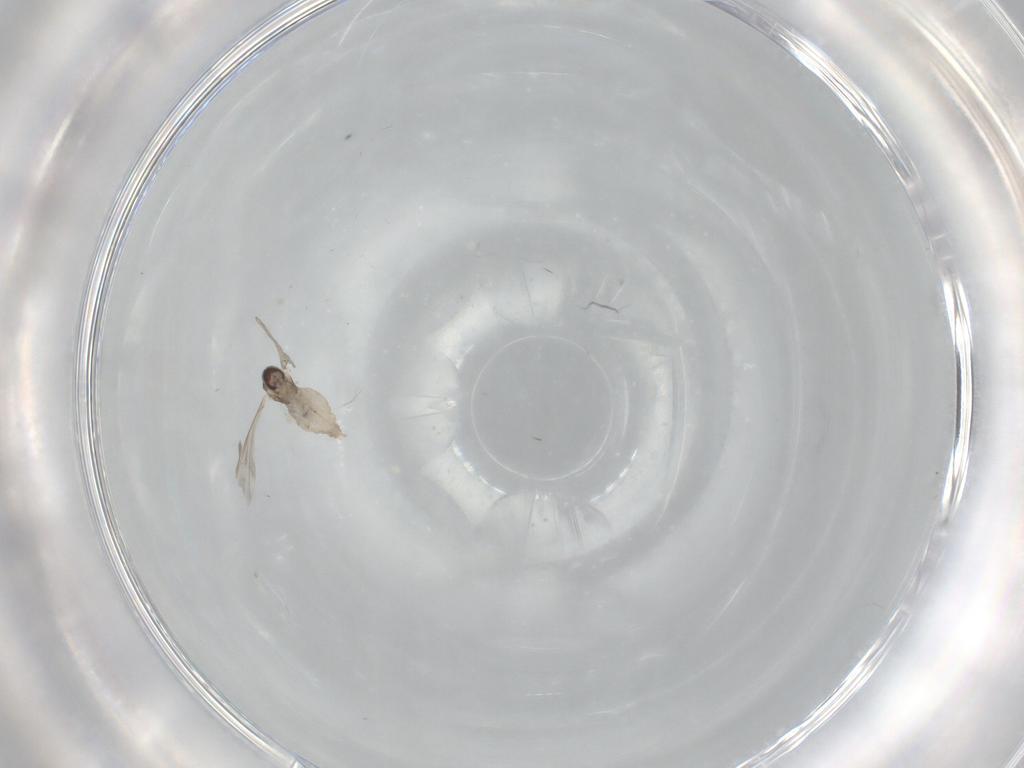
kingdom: Animalia
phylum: Arthropoda
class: Insecta
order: Diptera
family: Cecidomyiidae
